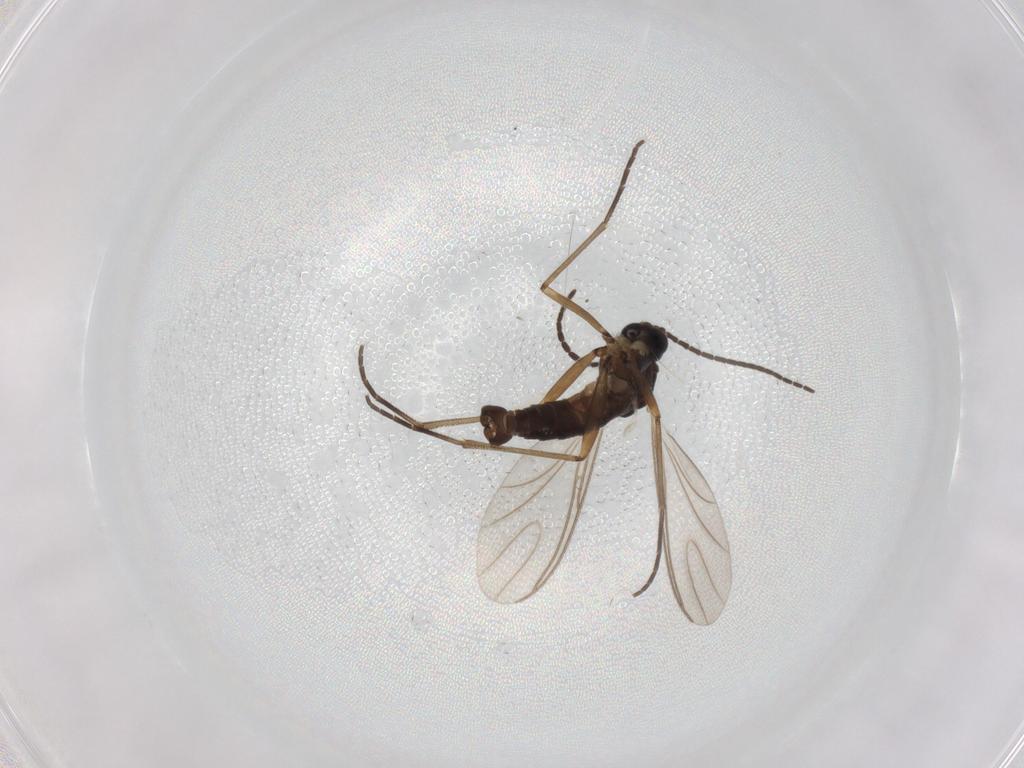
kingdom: Animalia
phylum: Arthropoda
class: Insecta
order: Diptera
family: Sciaridae
